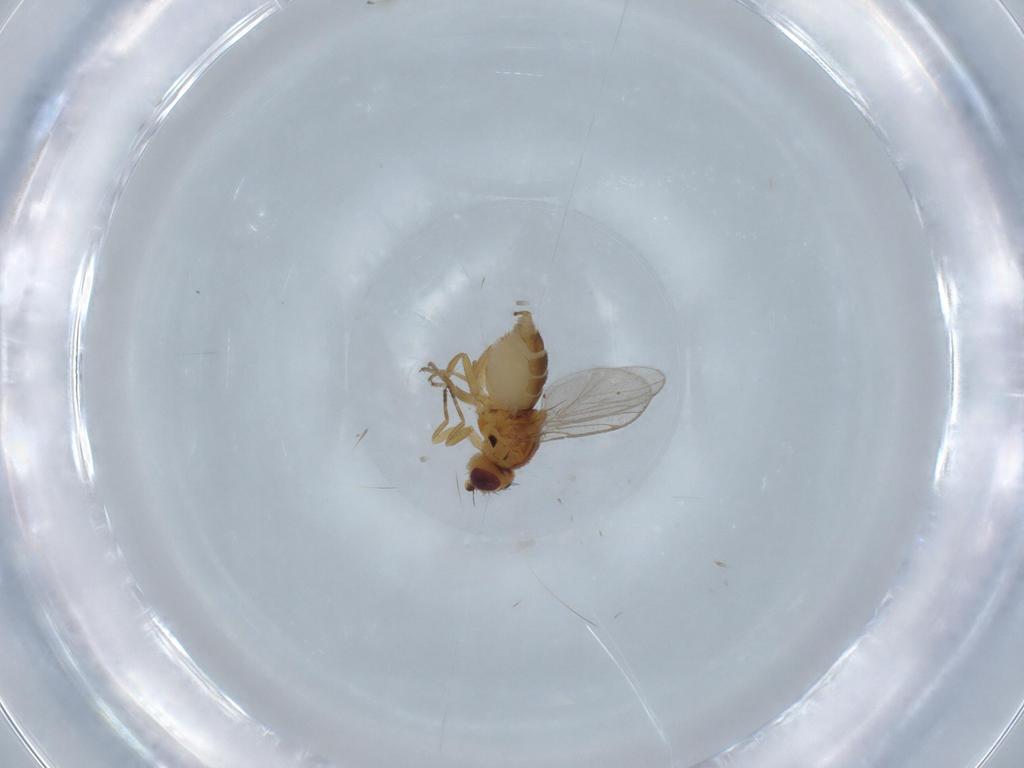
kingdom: Animalia
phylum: Arthropoda
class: Insecta
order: Diptera
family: Chloropidae
